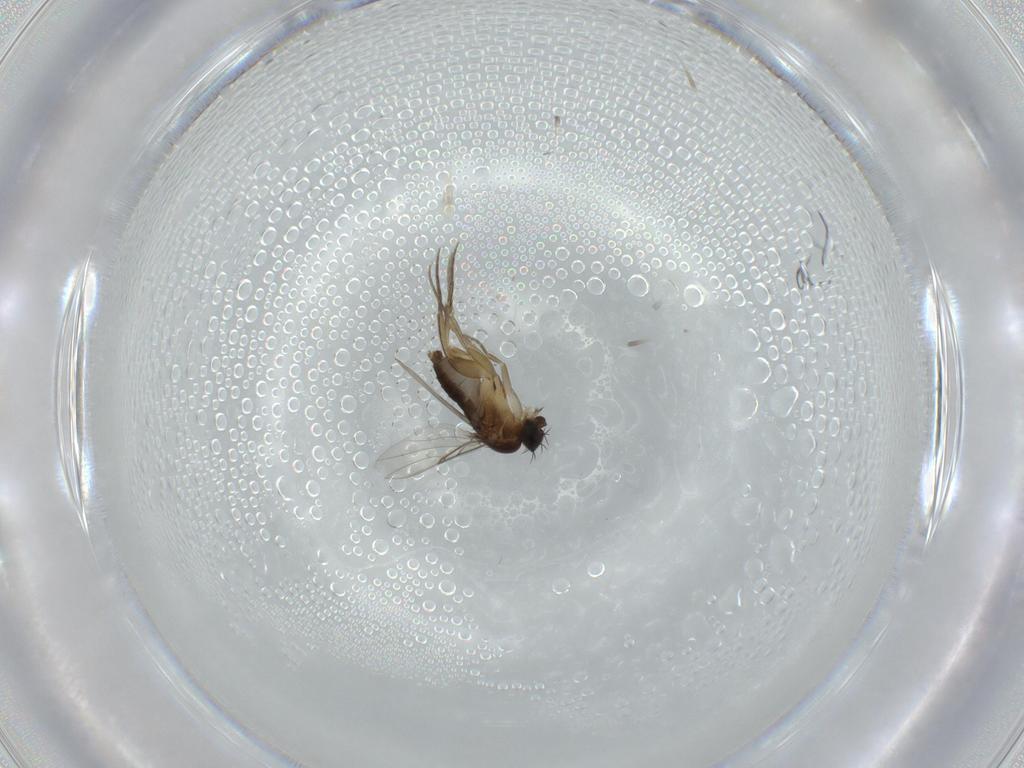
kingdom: Animalia
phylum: Arthropoda
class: Insecta
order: Diptera
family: Phoridae
